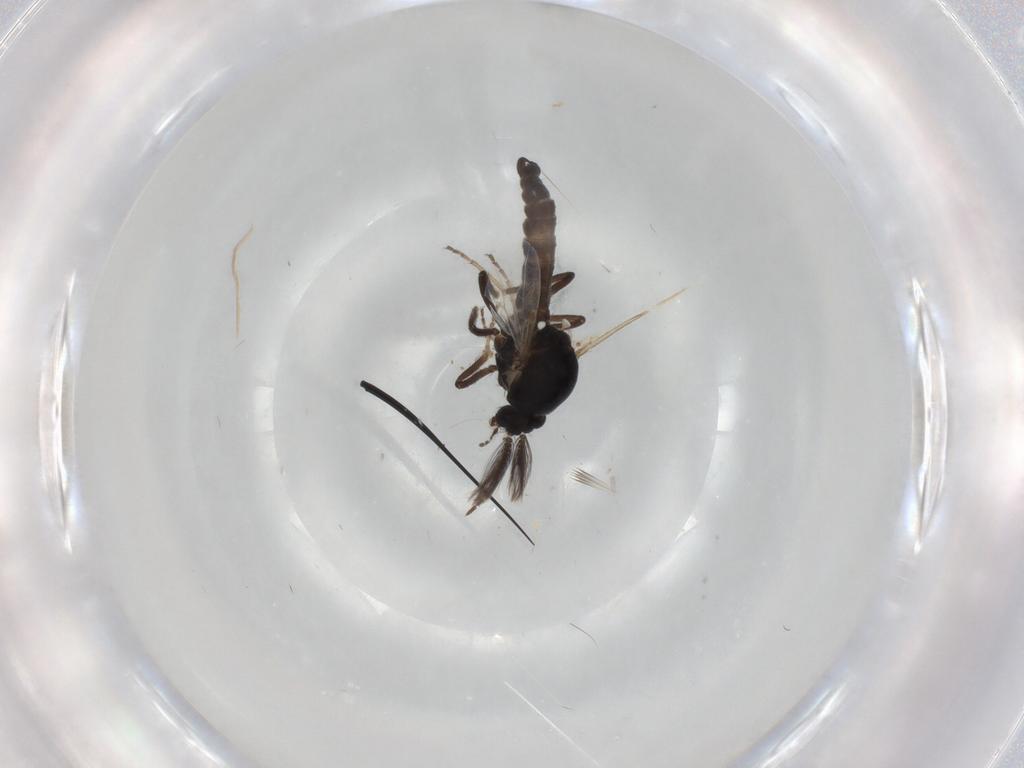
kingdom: Animalia
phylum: Arthropoda
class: Insecta
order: Diptera
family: Ceratopogonidae
